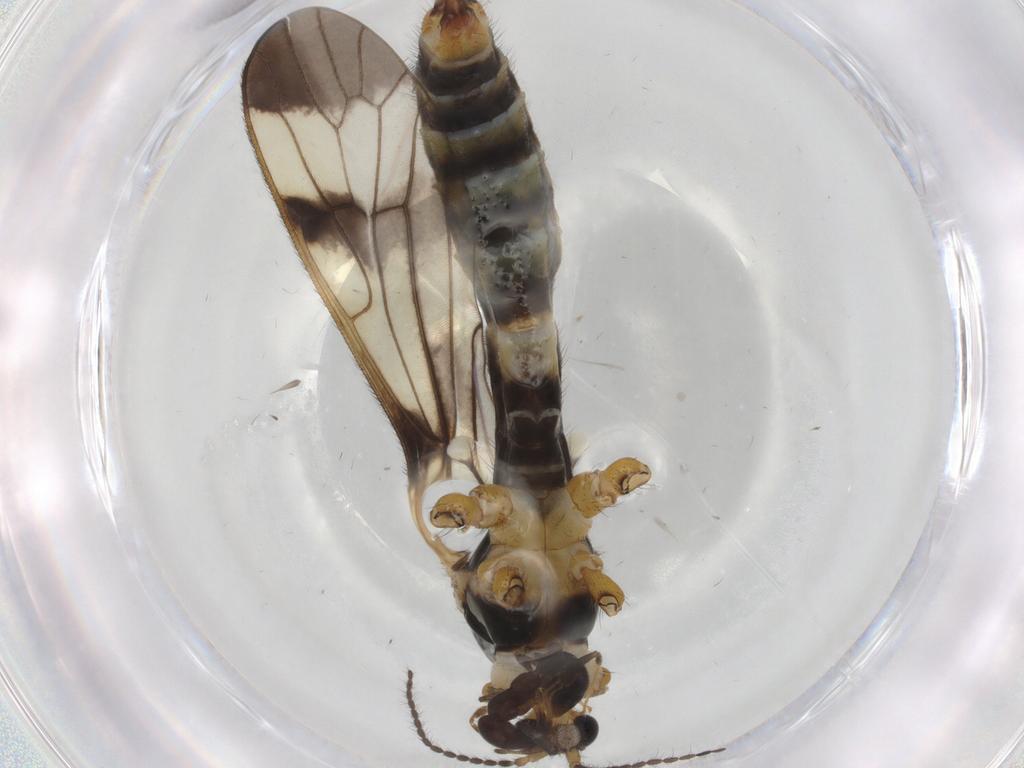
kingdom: Animalia
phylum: Arthropoda
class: Insecta
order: Diptera
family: Limoniidae
